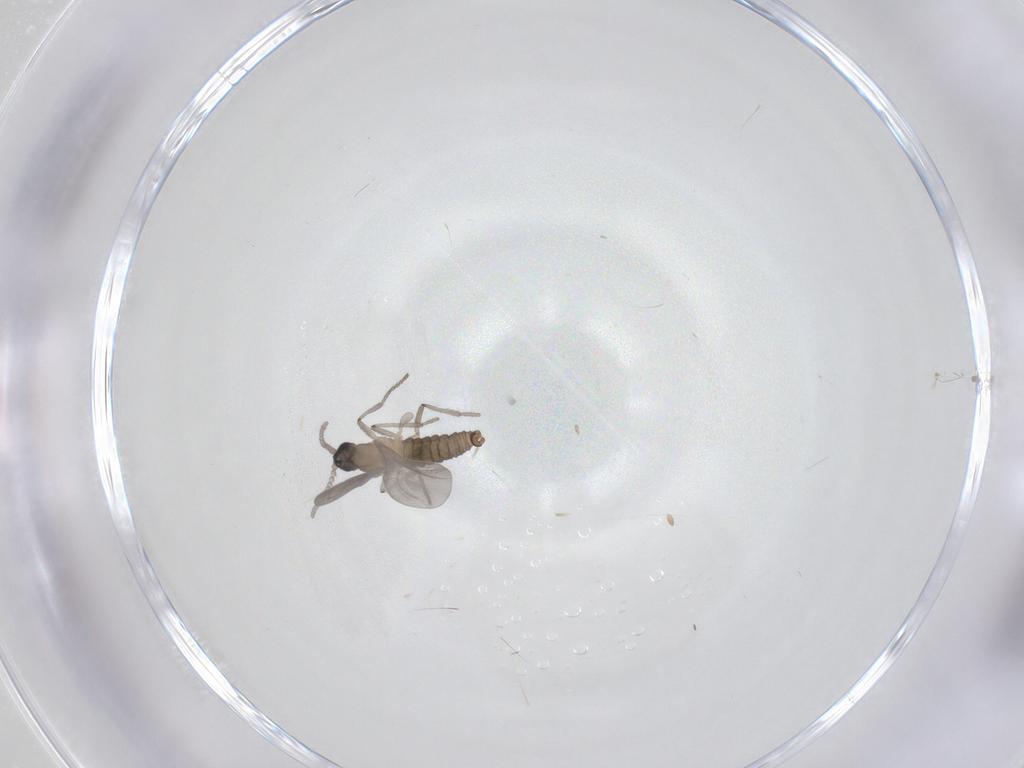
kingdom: Animalia
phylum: Arthropoda
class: Insecta
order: Diptera
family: Cecidomyiidae
